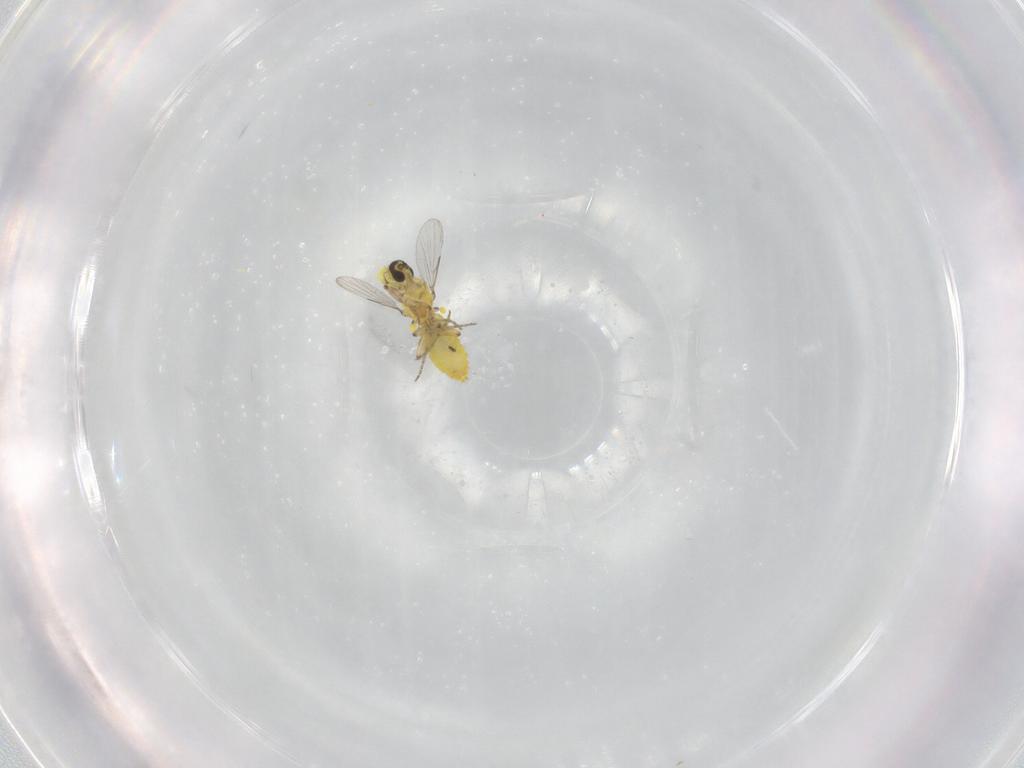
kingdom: Animalia
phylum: Arthropoda
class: Insecta
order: Diptera
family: Ceratopogonidae
